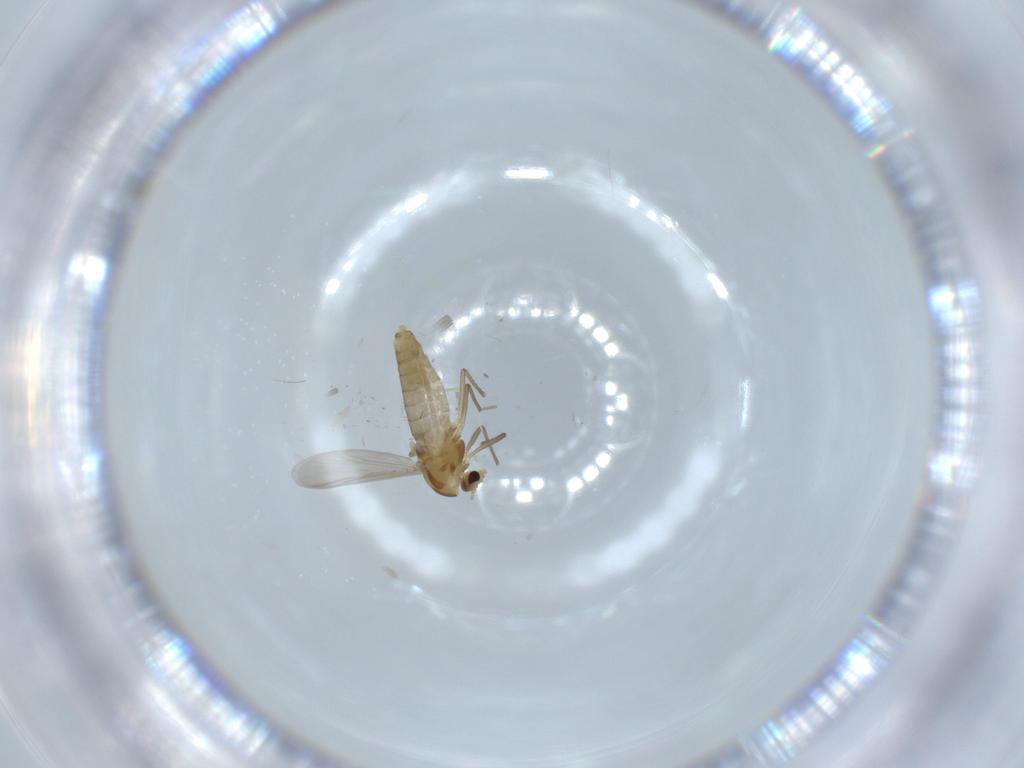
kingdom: Animalia
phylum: Arthropoda
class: Insecta
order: Diptera
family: Chironomidae
